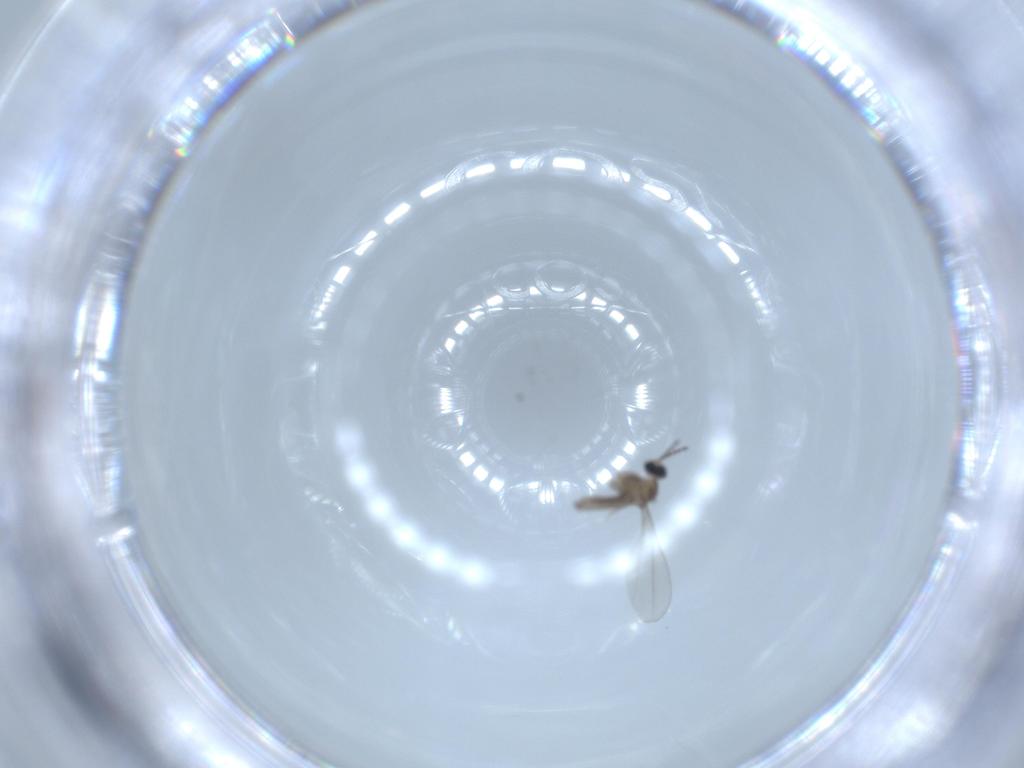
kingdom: Animalia
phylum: Arthropoda
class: Insecta
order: Diptera
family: Cecidomyiidae
